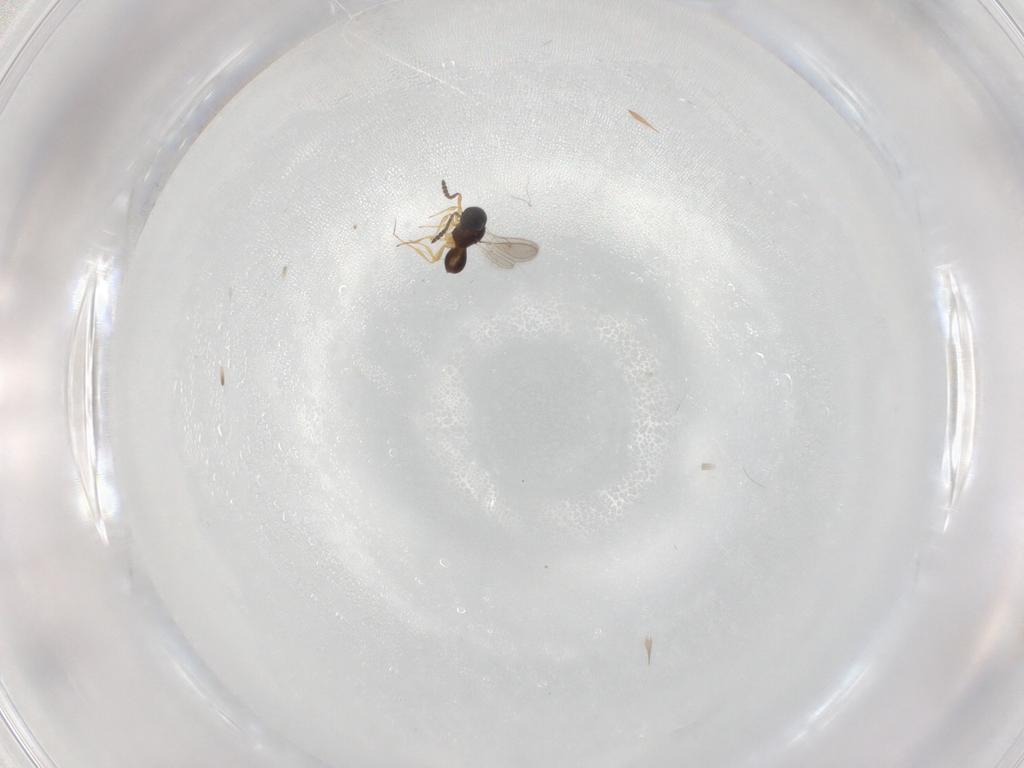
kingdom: Animalia
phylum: Arthropoda
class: Insecta
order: Hymenoptera
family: Scelionidae
